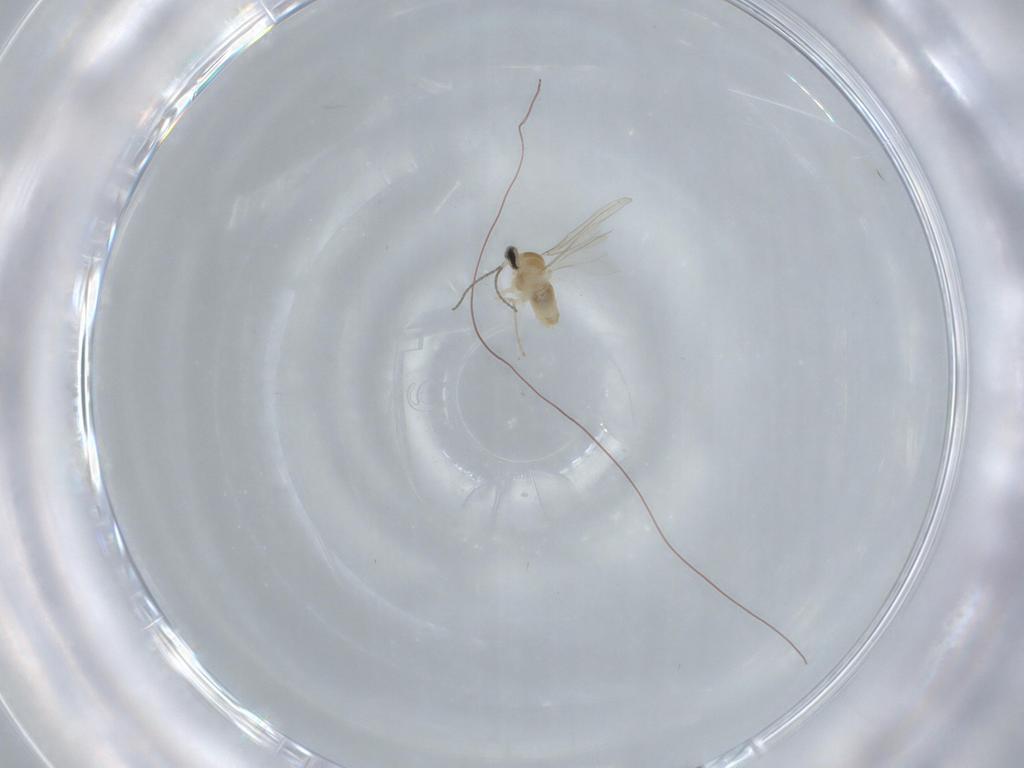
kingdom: Animalia
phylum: Arthropoda
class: Insecta
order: Diptera
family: Cecidomyiidae
